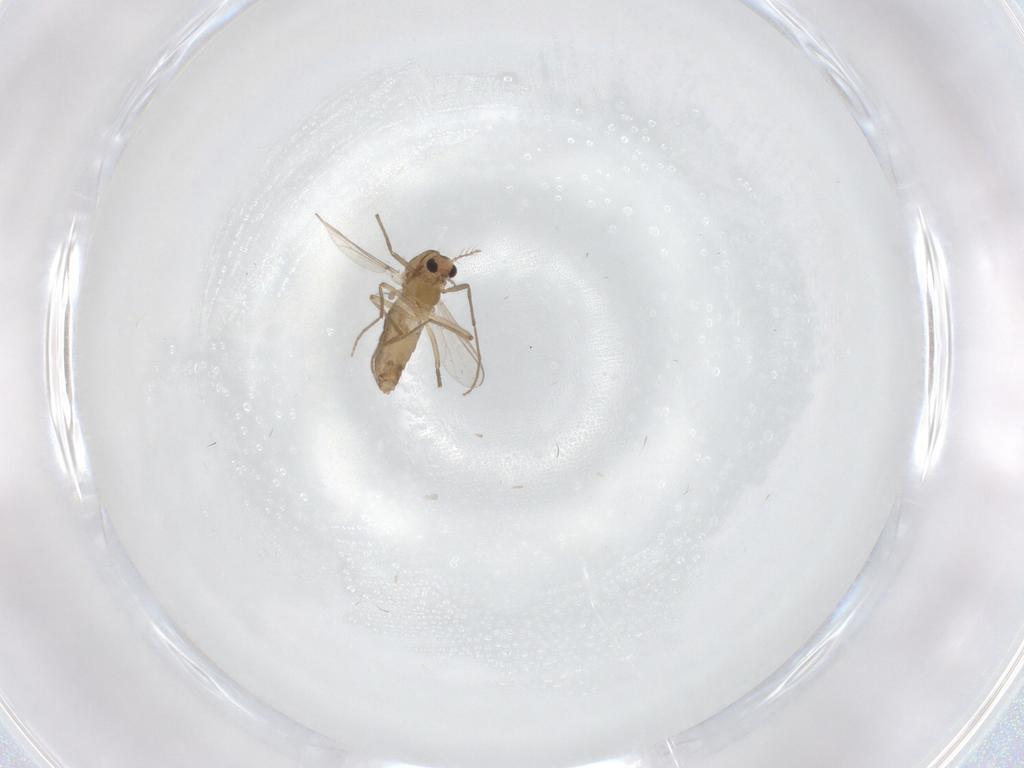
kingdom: Animalia
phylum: Arthropoda
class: Insecta
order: Diptera
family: Chironomidae
